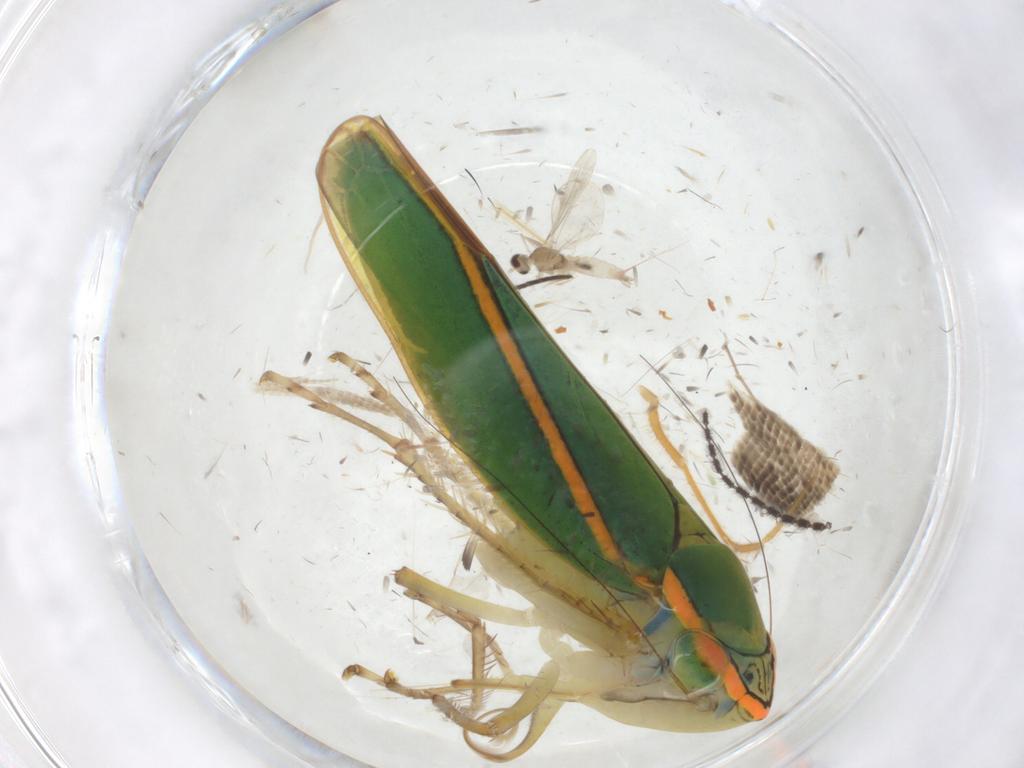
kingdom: Animalia
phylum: Arthropoda
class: Insecta
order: Hemiptera
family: Cicadellidae
